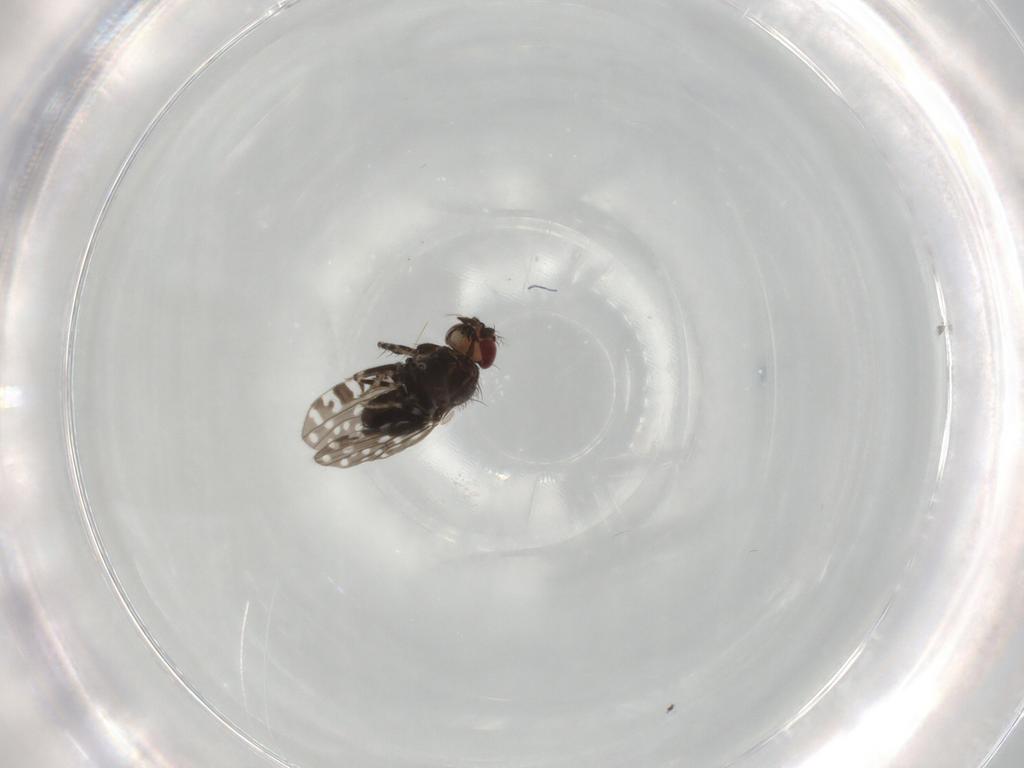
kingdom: Animalia
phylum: Arthropoda
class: Insecta
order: Diptera
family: Drosophilidae
